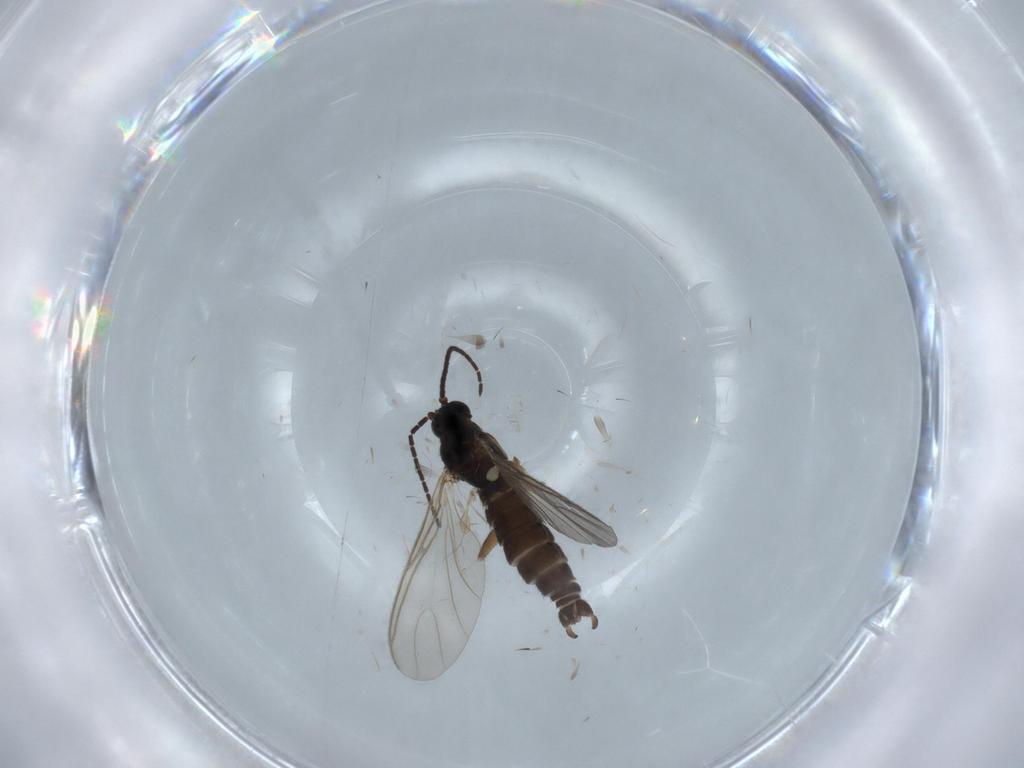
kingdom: Animalia
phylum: Arthropoda
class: Insecta
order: Diptera
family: Sciaridae
